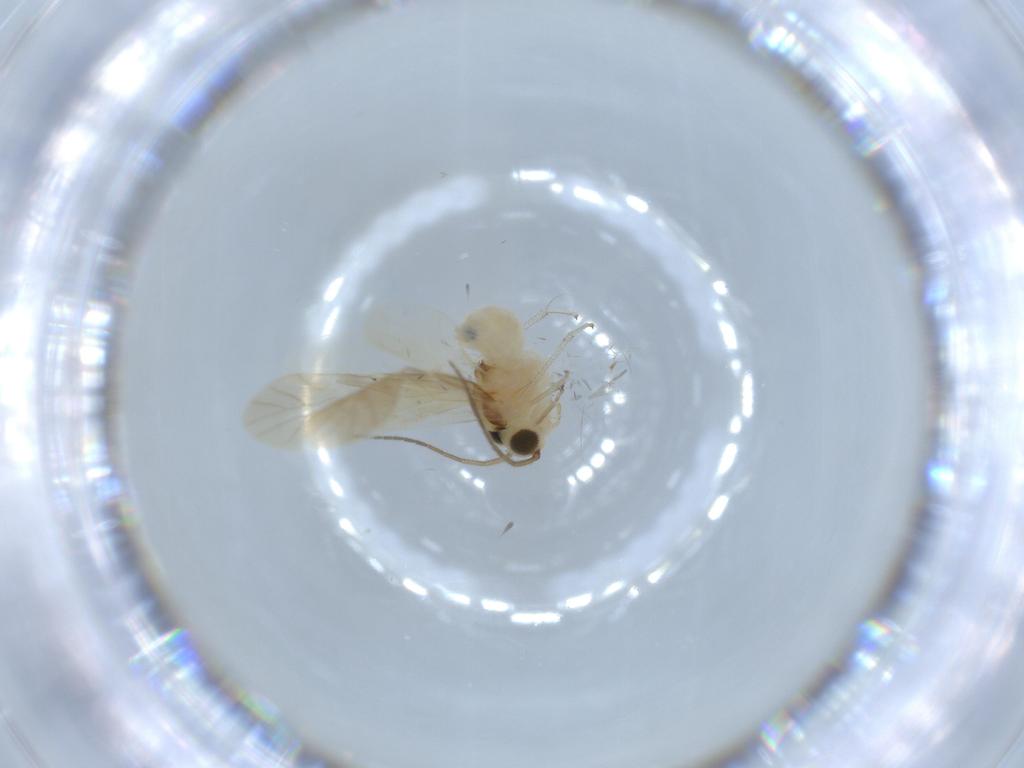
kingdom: Animalia
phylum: Arthropoda
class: Insecta
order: Psocodea
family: Caeciliusidae
